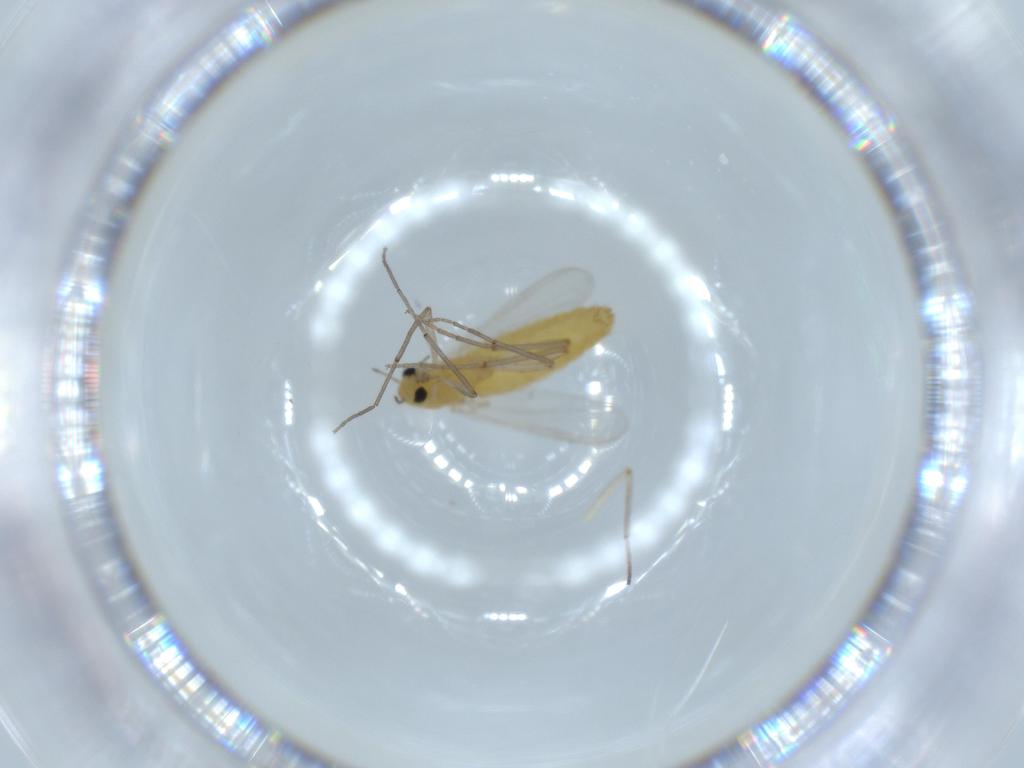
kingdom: Animalia
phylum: Arthropoda
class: Insecta
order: Diptera
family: Chironomidae
